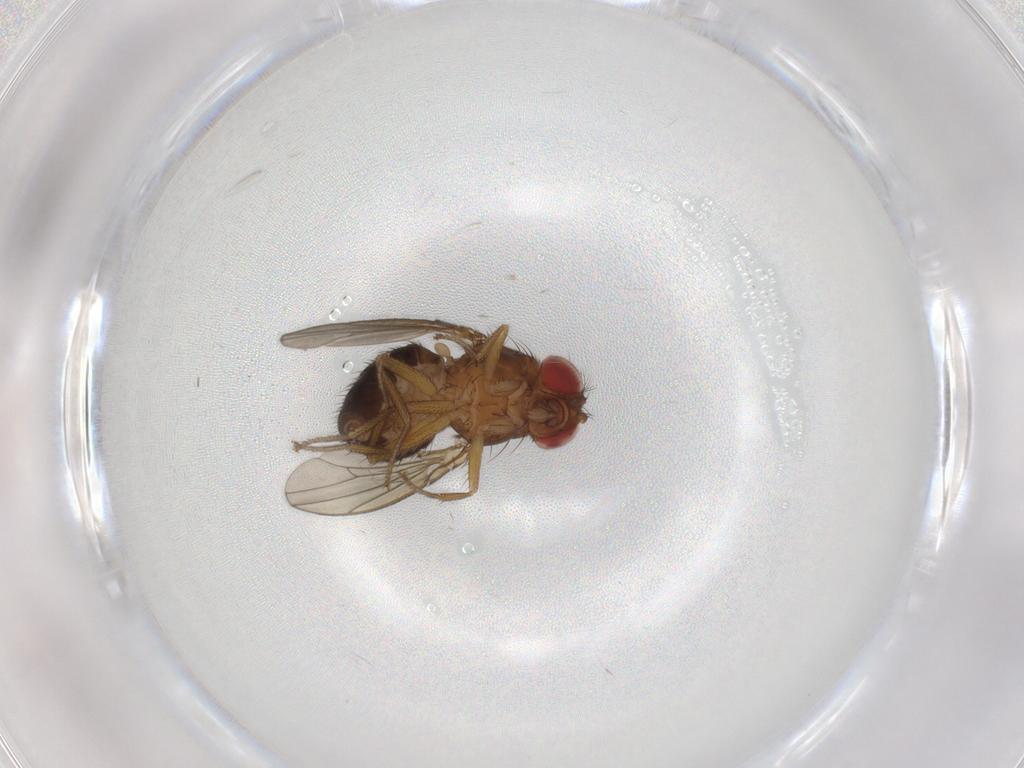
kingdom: Animalia
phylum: Arthropoda
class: Insecta
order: Diptera
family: Drosophilidae
